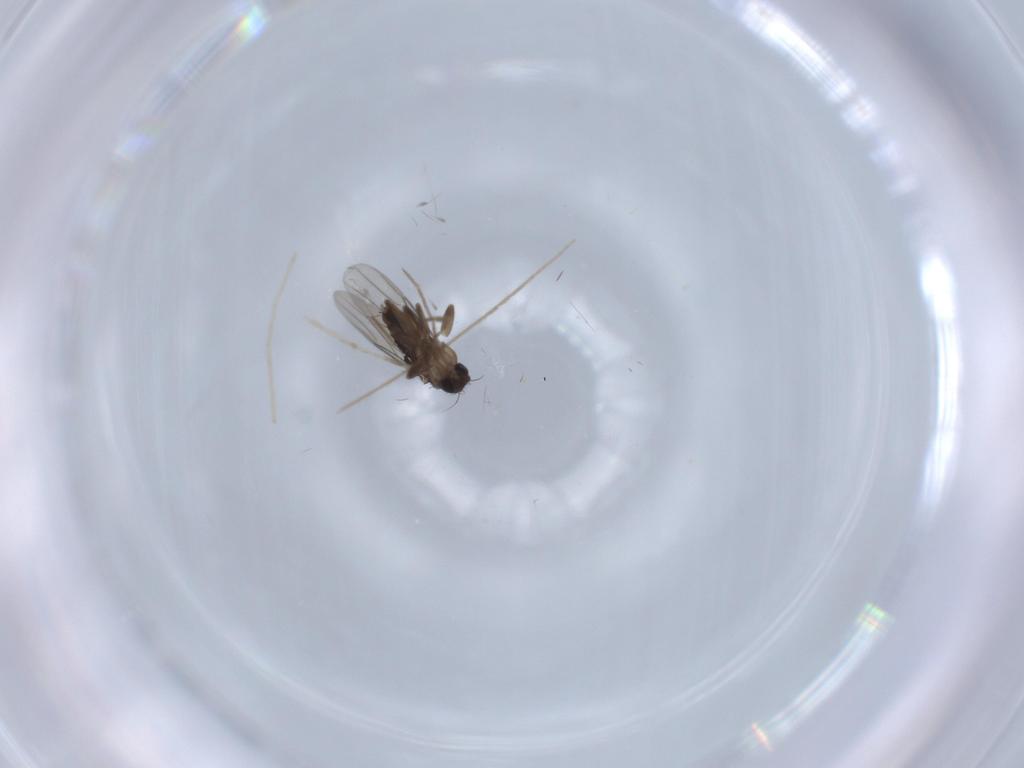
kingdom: Animalia
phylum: Arthropoda
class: Insecta
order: Diptera
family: Phoridae
